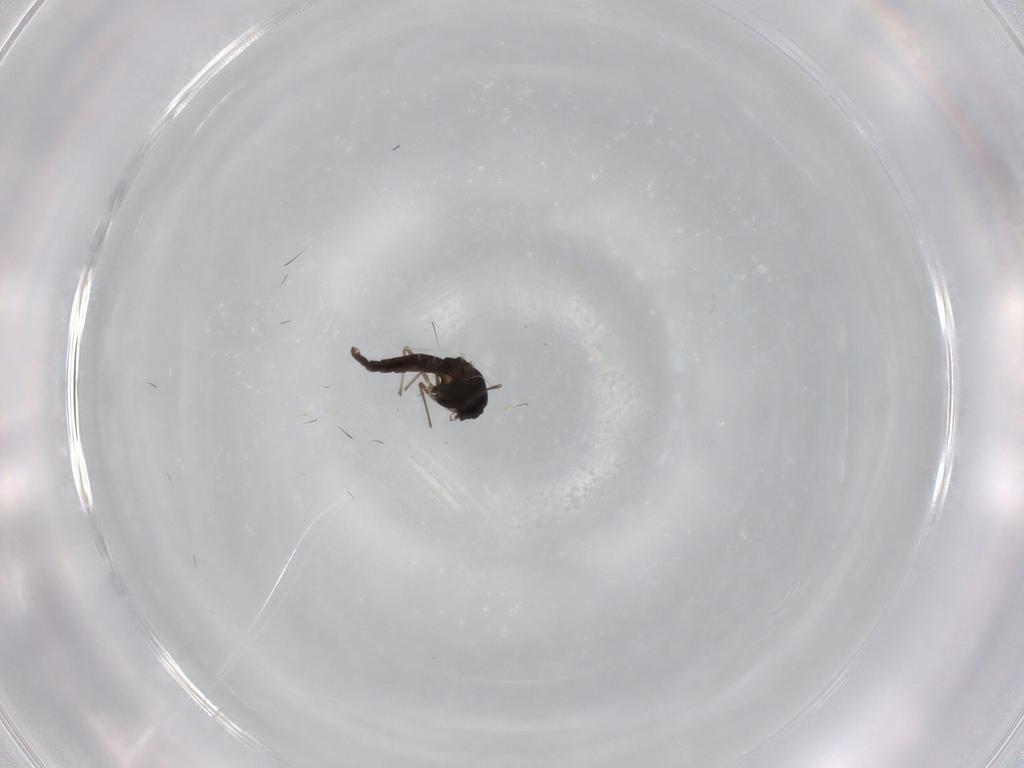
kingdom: Animalia
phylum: Arthropoda
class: Insecta
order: Diptera
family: Chironomidae
